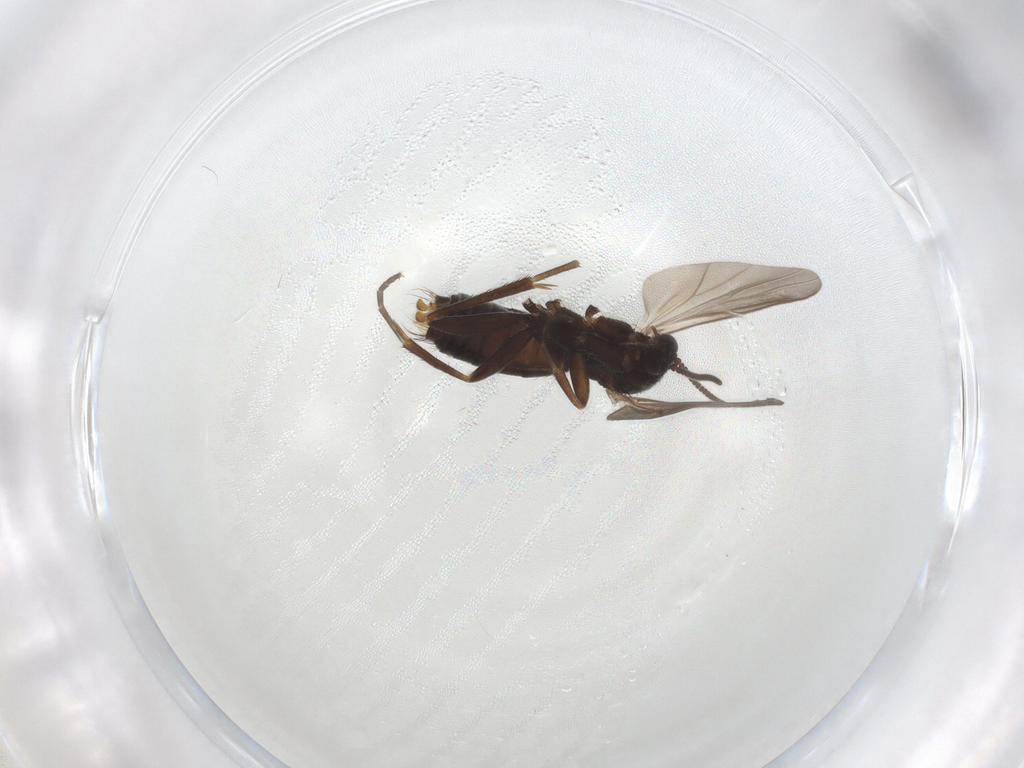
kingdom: Animalia
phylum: Arthropoda
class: Insecta
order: Diptera
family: Mycetophilidae
